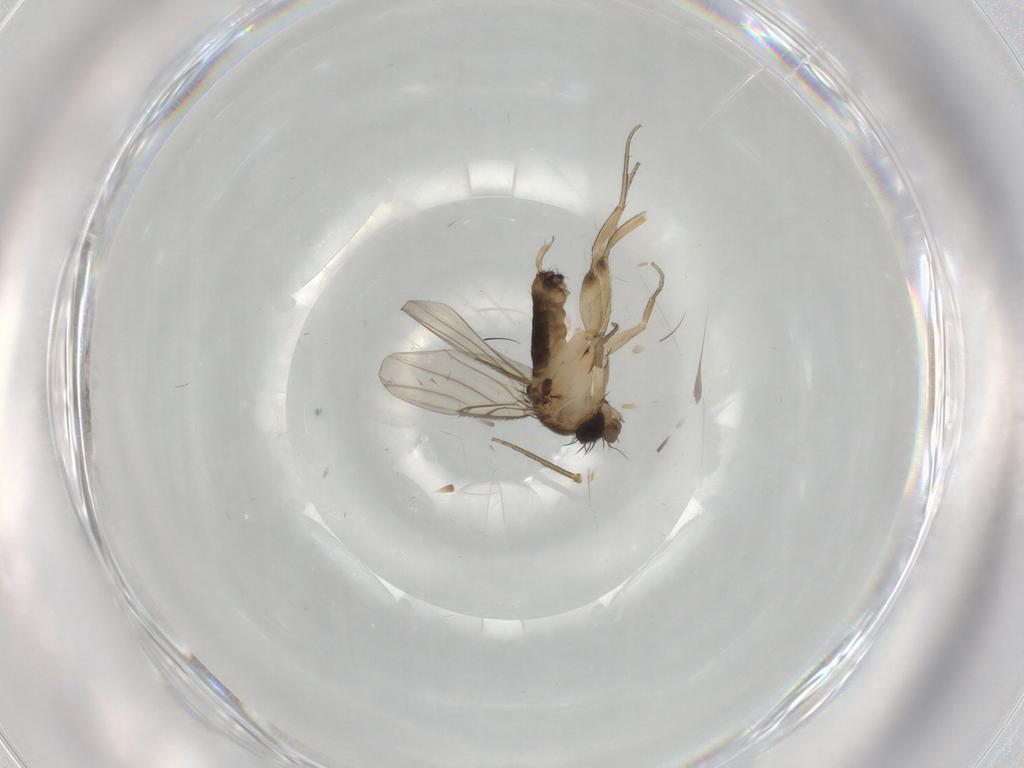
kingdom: Animalia
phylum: Arthropoda
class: Insecta
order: Diptera
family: Phoridae
